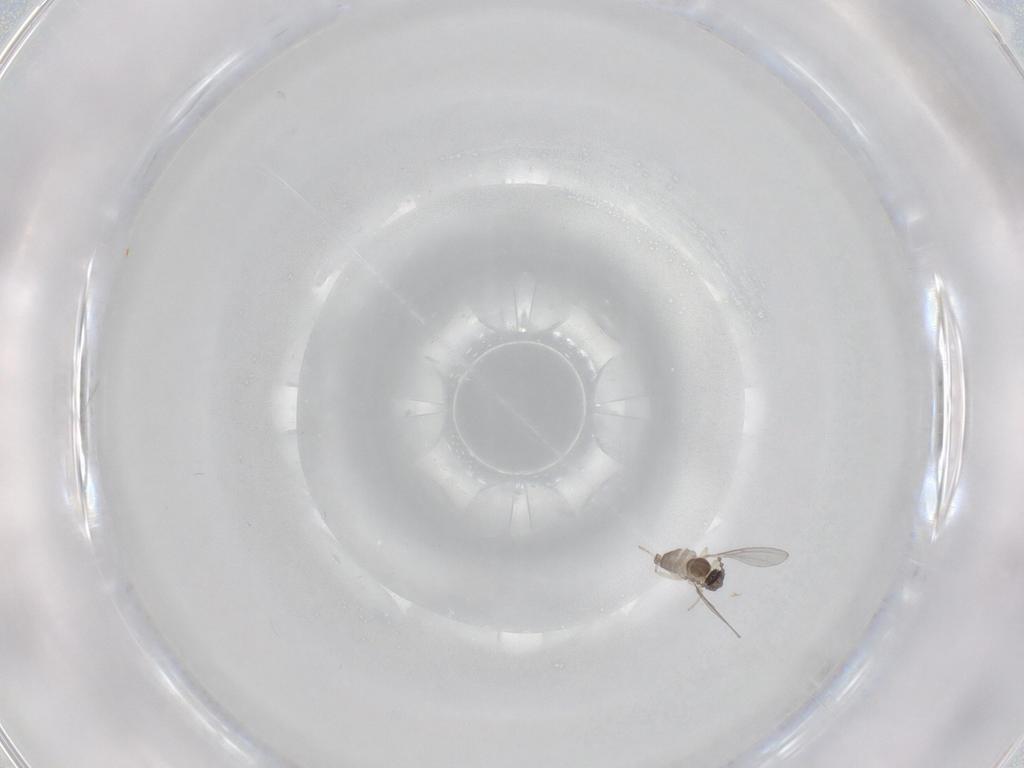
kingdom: Animalia
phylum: Arthropoda
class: Insecta
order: Diptera
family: Cecidomyiidae
